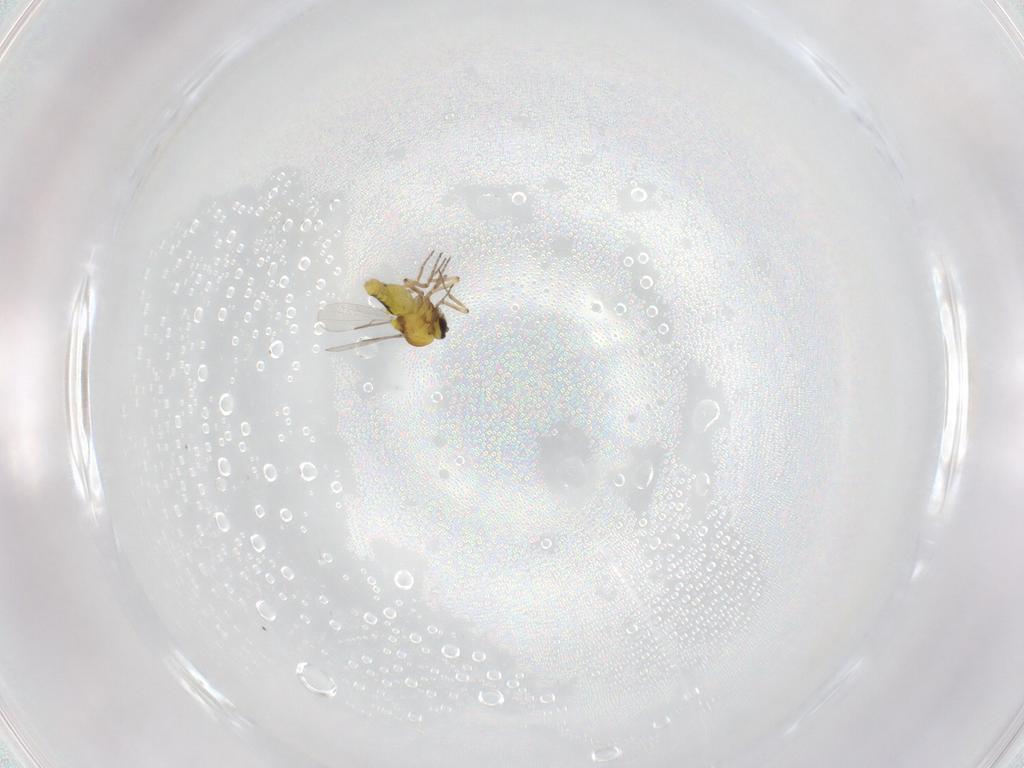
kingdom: Animalia
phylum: Arthropoda
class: Insecta
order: Diptera
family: Ceratopogonidae
